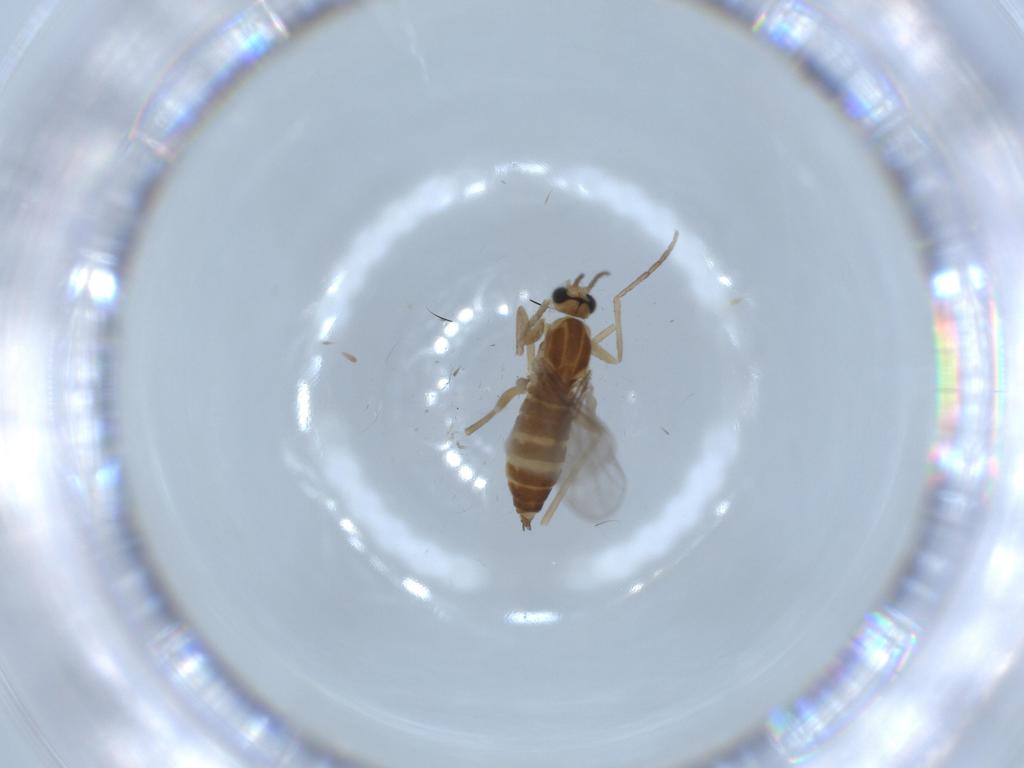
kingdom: Animalia
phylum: Arthropoda
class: Insecta
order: Diptera
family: Cecidomyiidae
